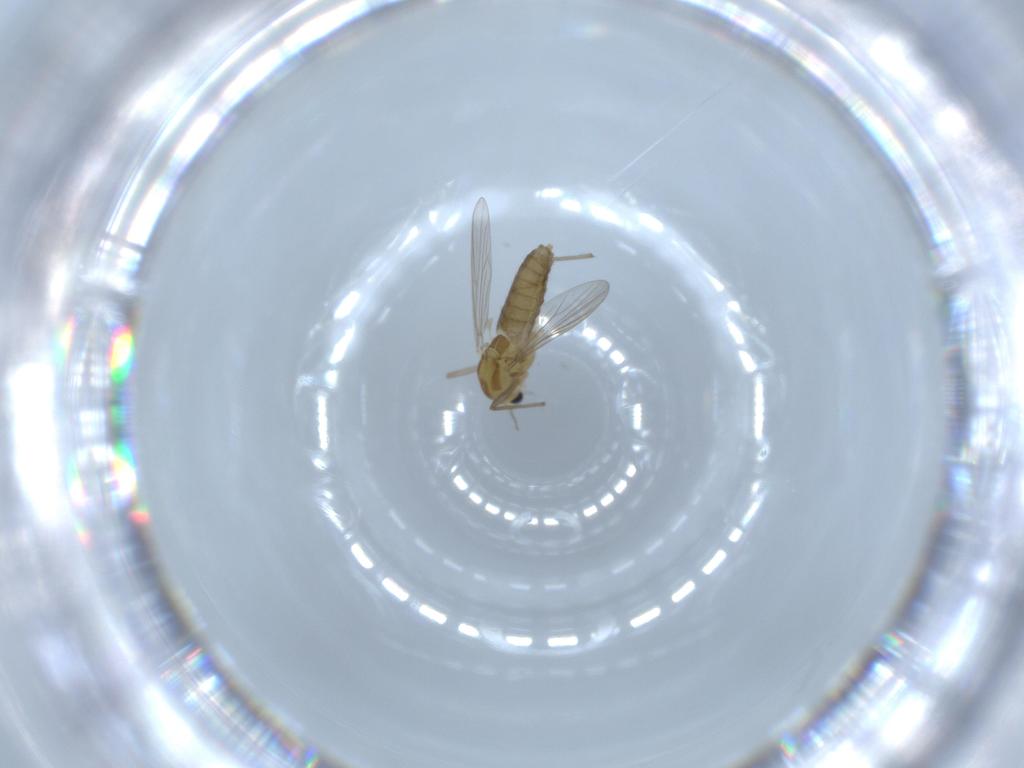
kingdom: Animalia
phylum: Arthropoda
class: Insecta
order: Diptera
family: Chironomidae
